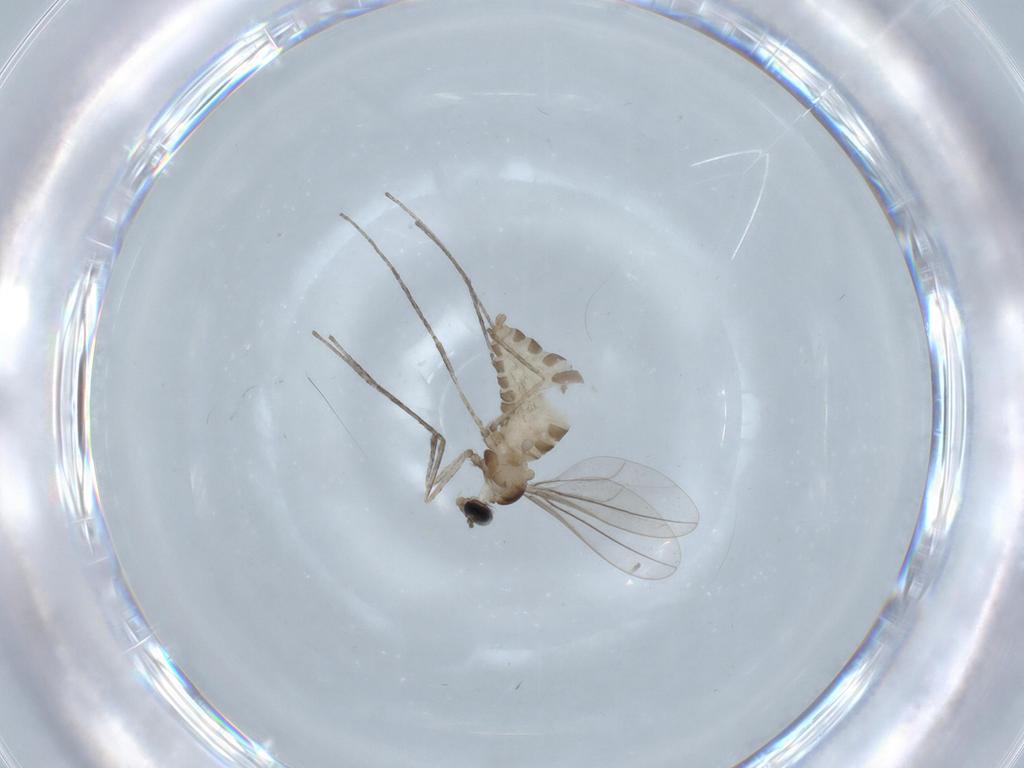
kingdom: Animalia
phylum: Arthropoda
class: Insecta
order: Diptera
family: Cecidomyiidae
